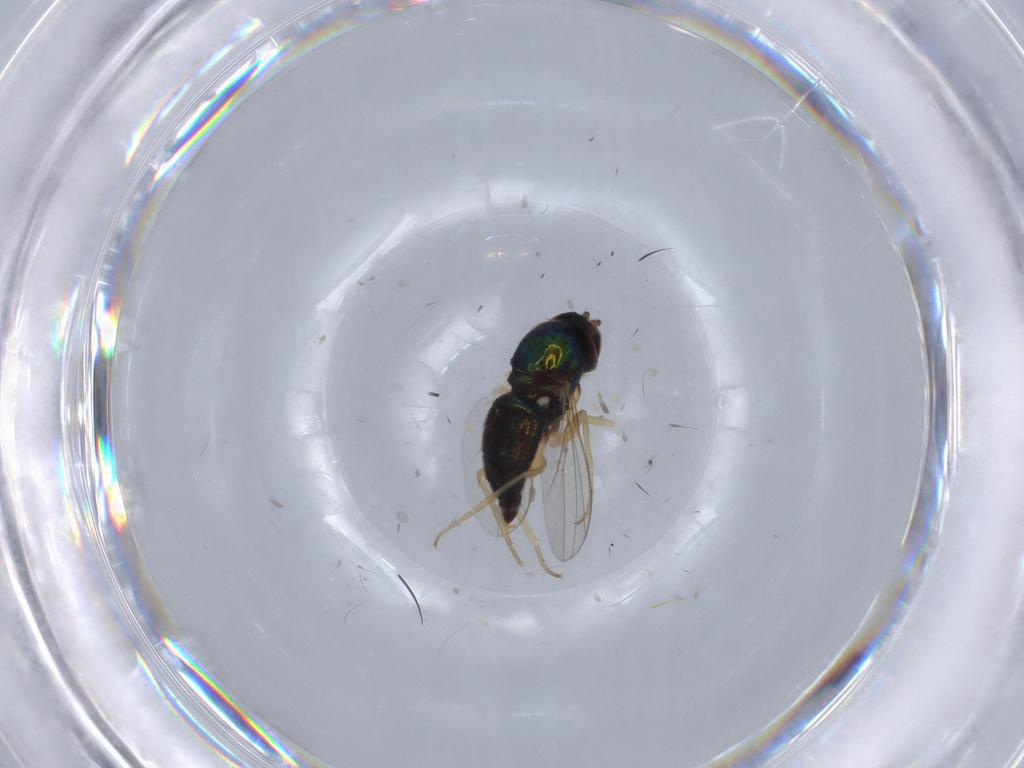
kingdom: Animalia
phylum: Arthropoda
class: Insecta
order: Diptera
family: Dolichopodidae
